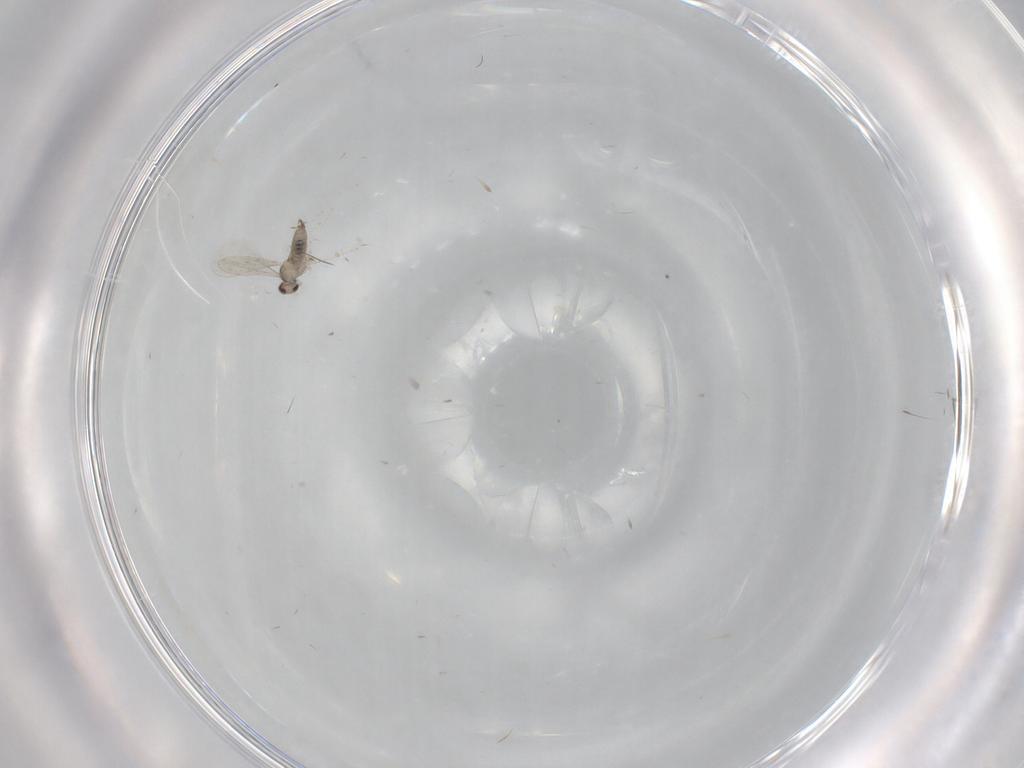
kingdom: Animalia
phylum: Arthropoda
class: Insecta
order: Diptera
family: Cecidomyiidae
